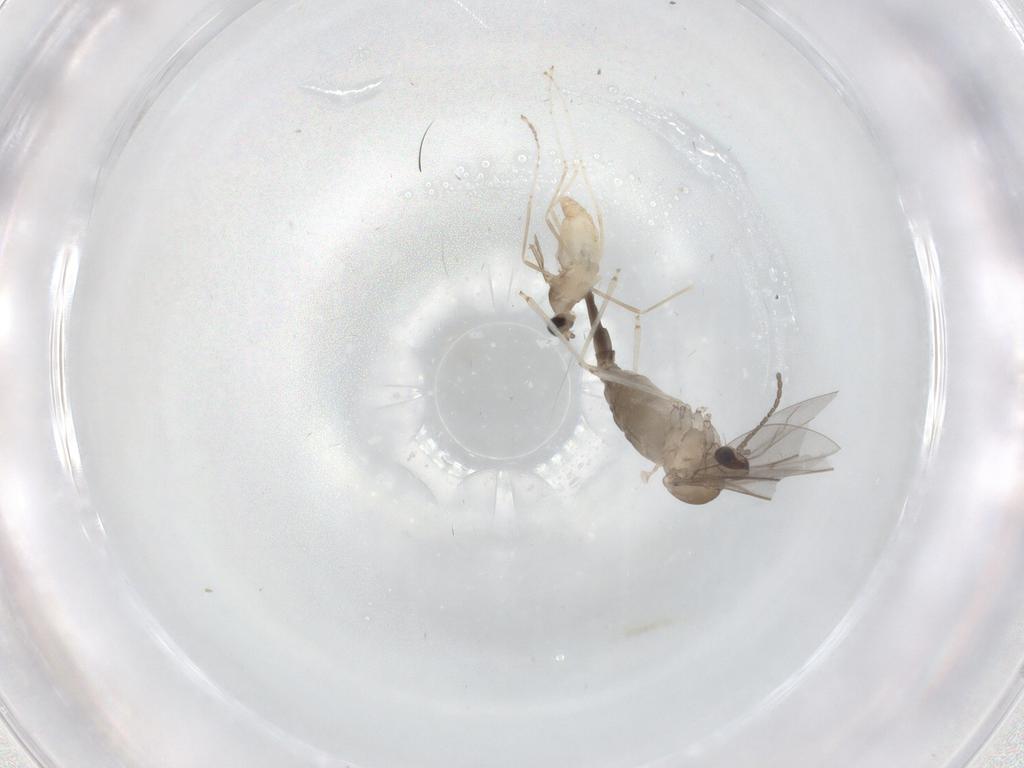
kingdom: Animalia
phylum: Arthropoda
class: Insecta
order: Diptera
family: Cecidomyiidae
